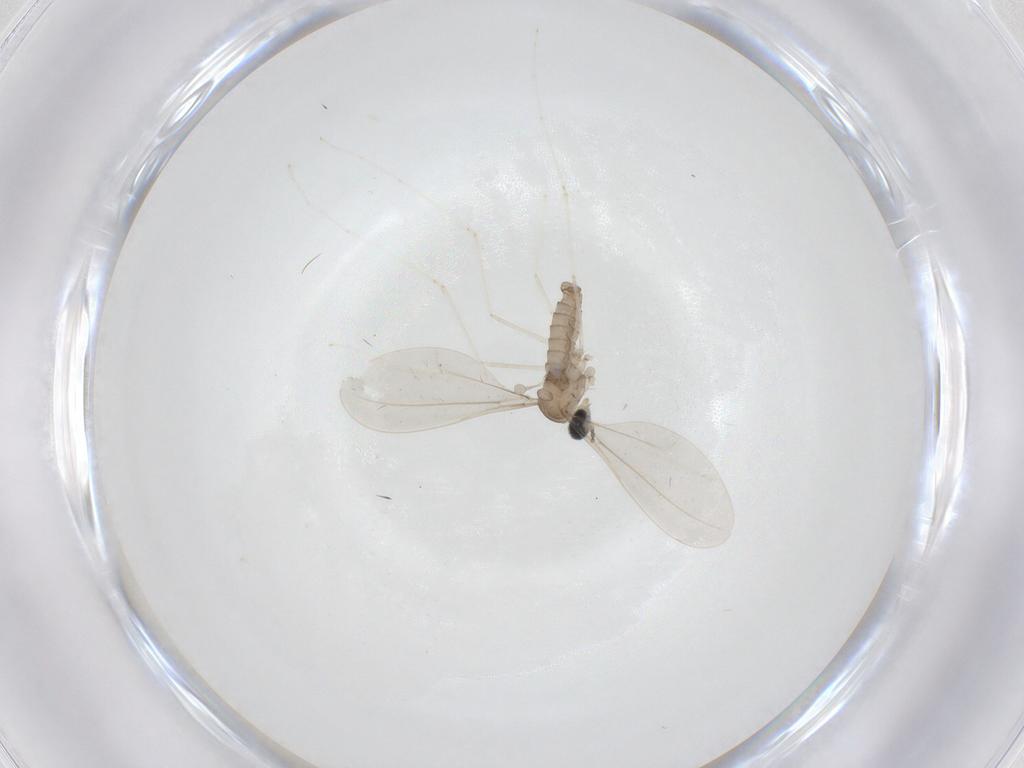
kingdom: Animalia
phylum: Arthropoda
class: Insecta
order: Diptera
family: Cecidomyiidae
